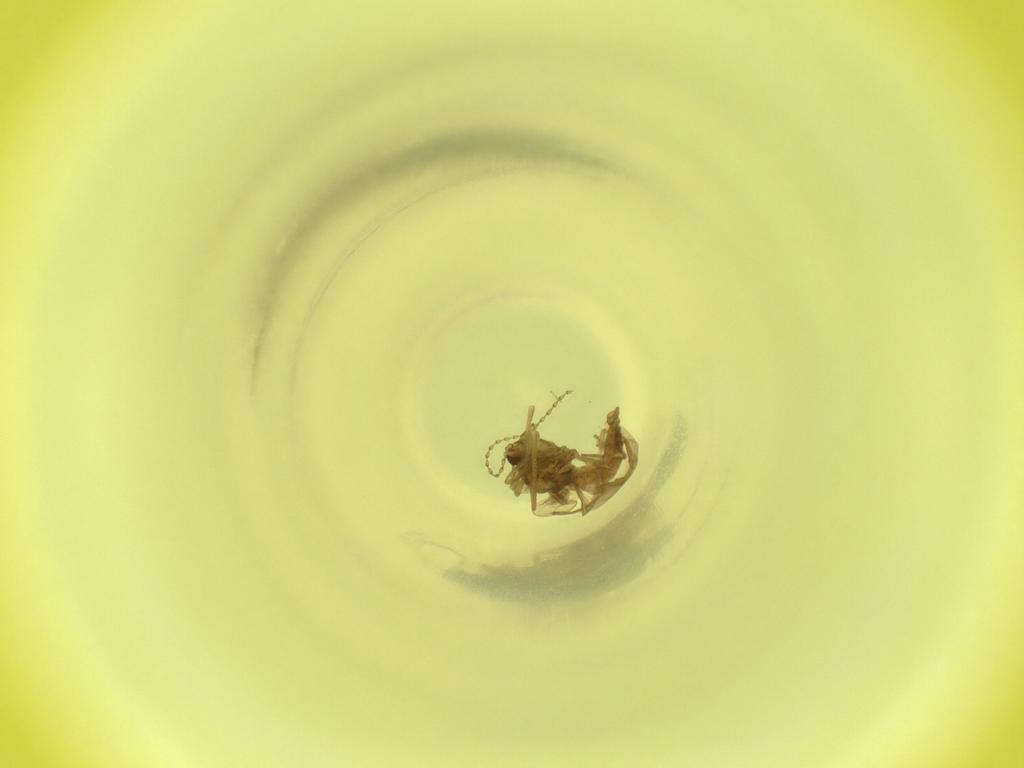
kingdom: Animalia
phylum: Arthropoda
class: Insecta
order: Diptera
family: Cecidomyiidae
